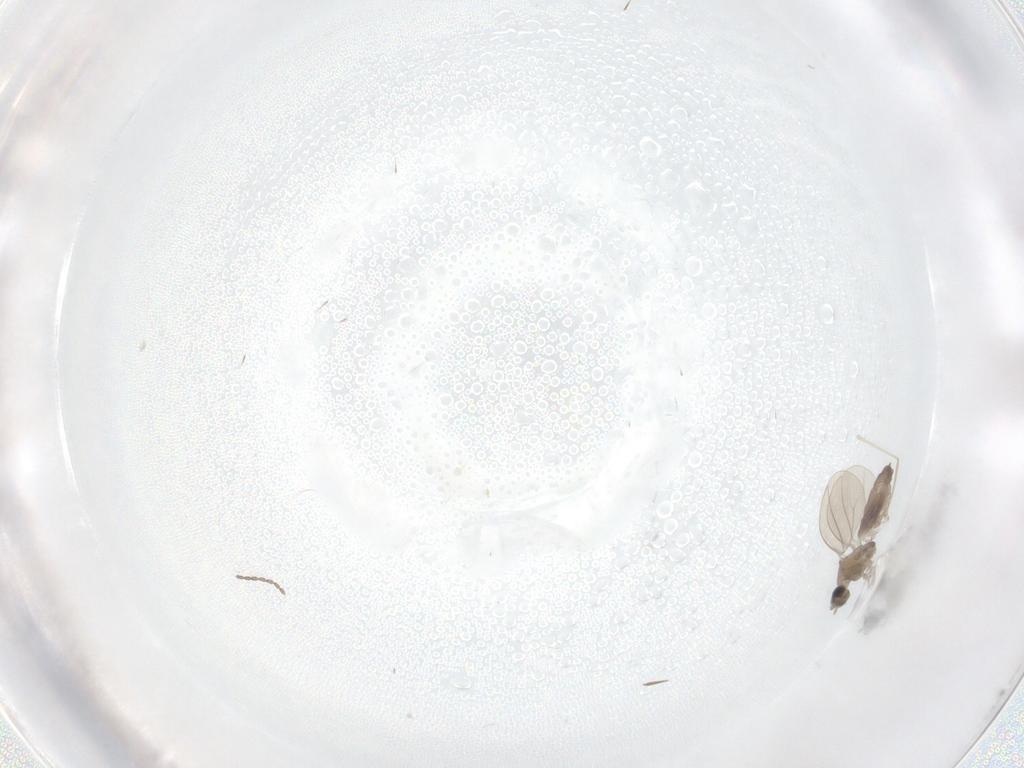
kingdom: Animalia
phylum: Arthropoda
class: Insecta
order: Diptera
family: Cecidomyiidae
